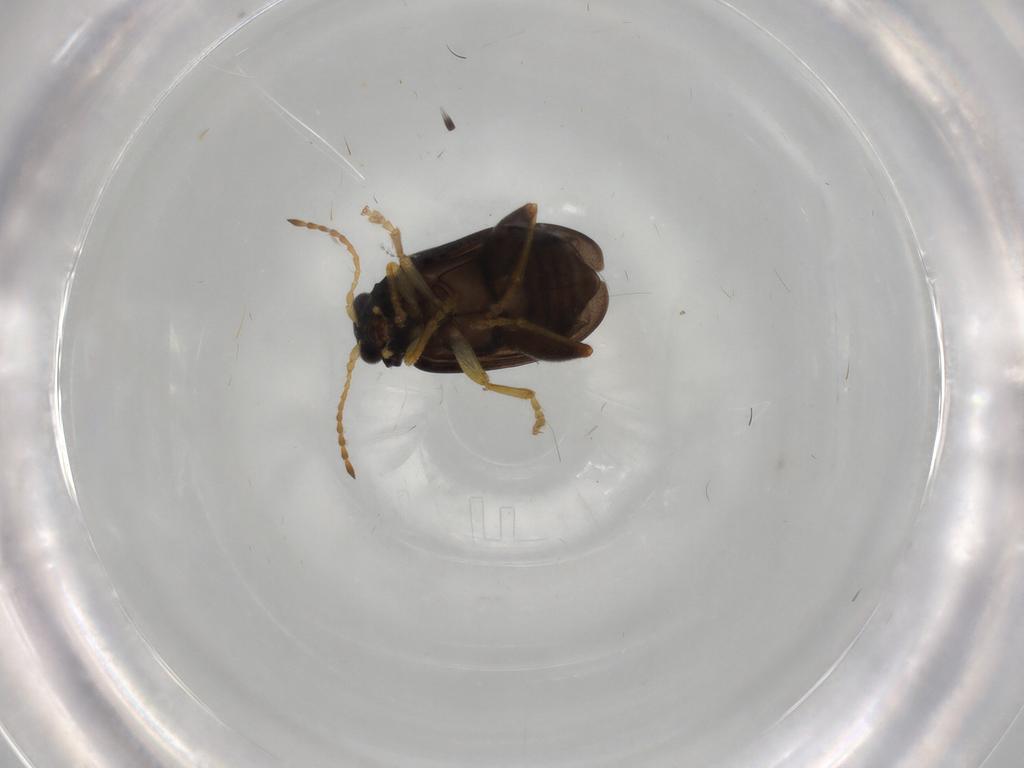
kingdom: Animalia
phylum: Arthropoda
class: Insecta
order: Coleoptera
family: Chrysomelidae
